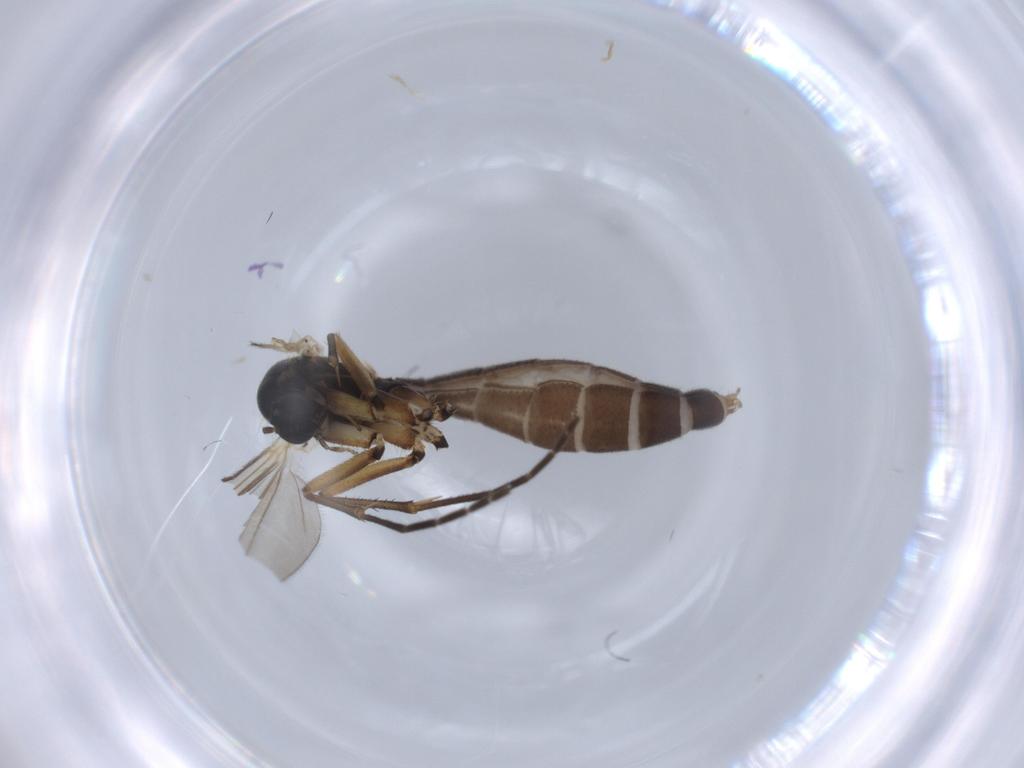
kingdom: Animalia
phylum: Arthropoda
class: Insecta
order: Diptera
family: Mycetophilidae
